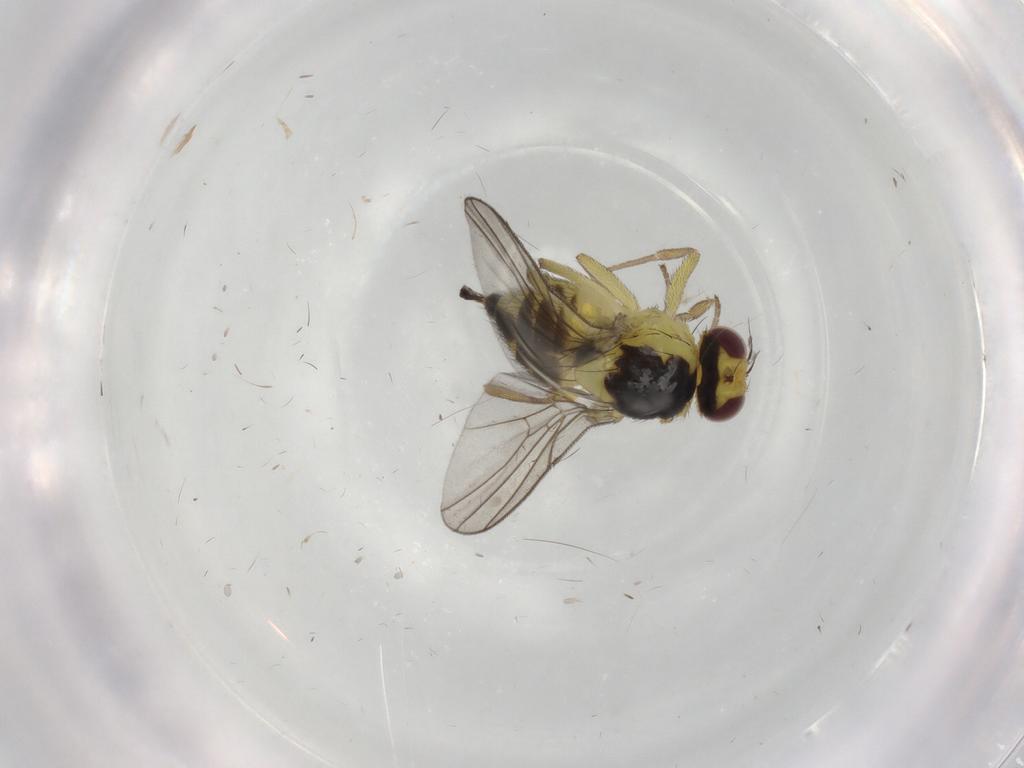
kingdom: Animalia
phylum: Arthropoda
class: Insecta
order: Diptera
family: Agromyzidae
